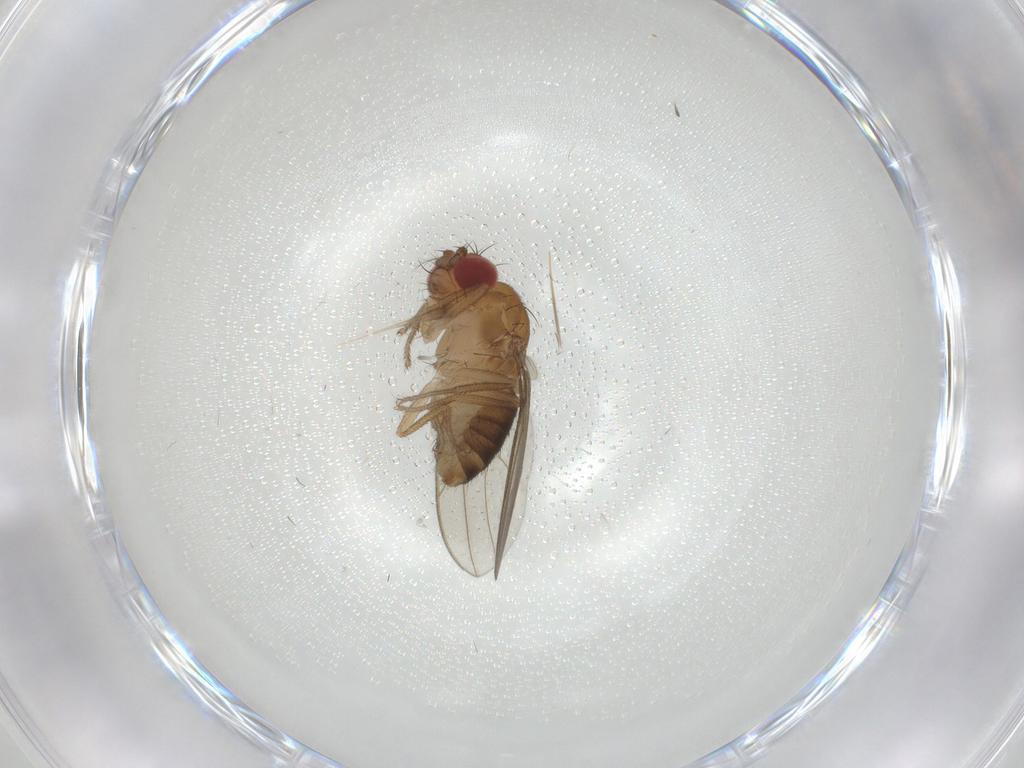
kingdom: Animalia
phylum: Arthropoda
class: Insecta
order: Diptera
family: Drosophilidae
